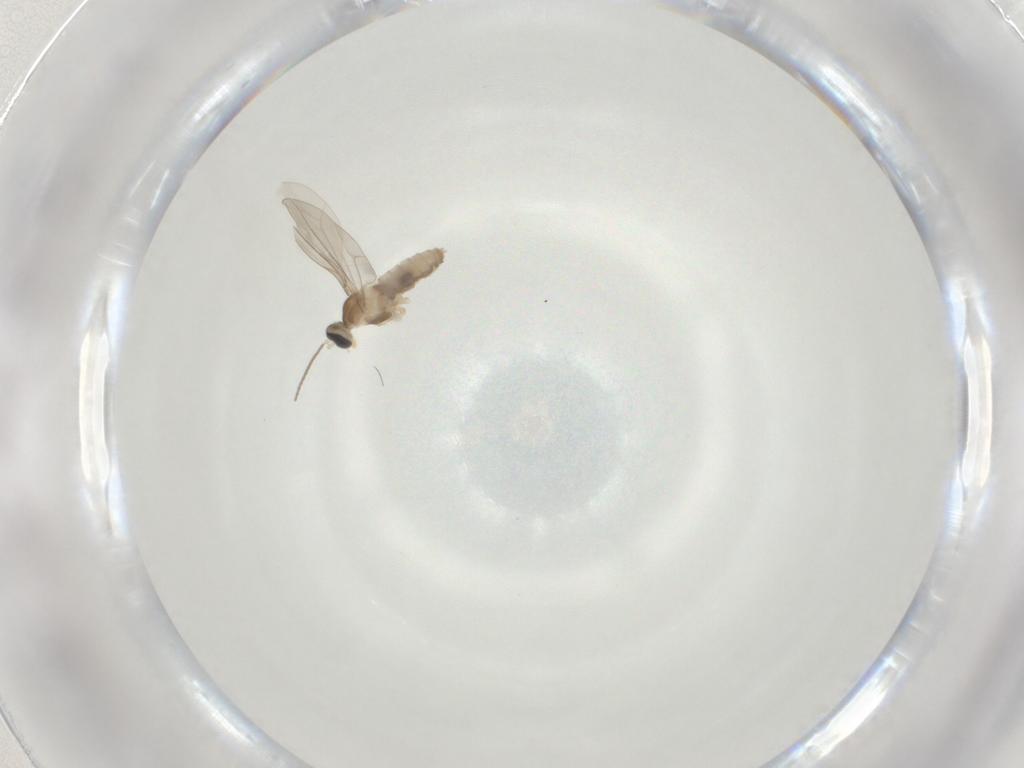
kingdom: Animalia
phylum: Arthropoda
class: Insecta
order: Diptera
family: Cecidomyiidae
